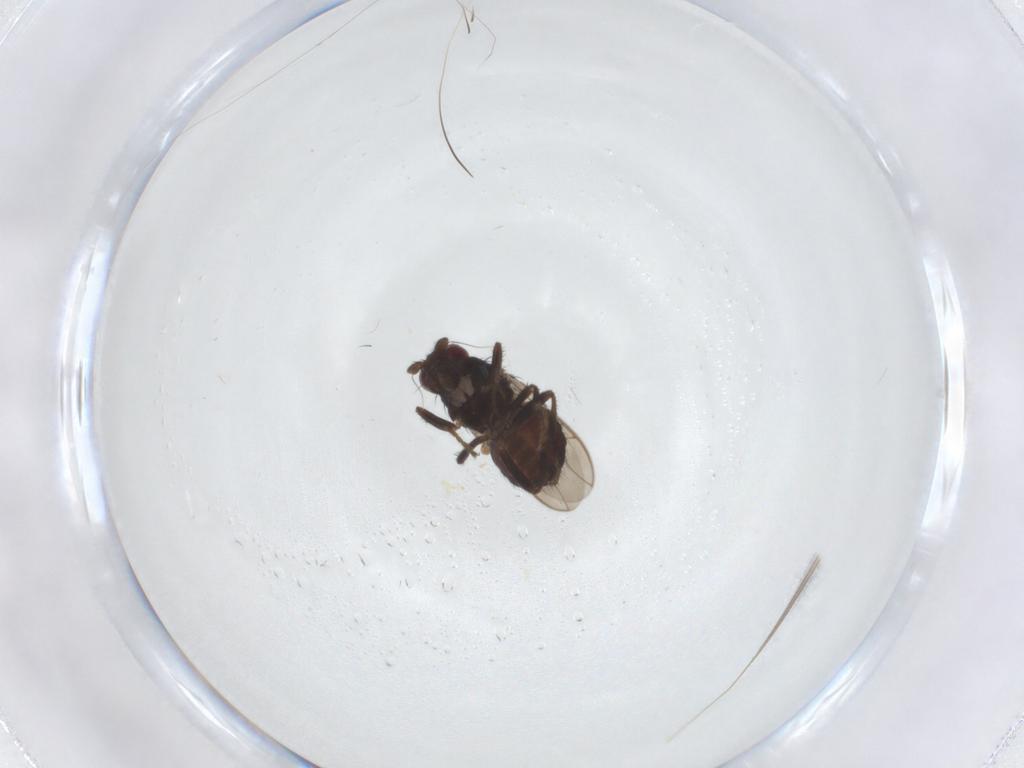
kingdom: Animalia
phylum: Arthropoda
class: Insecta
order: Diptera
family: Sphaeroceridae
